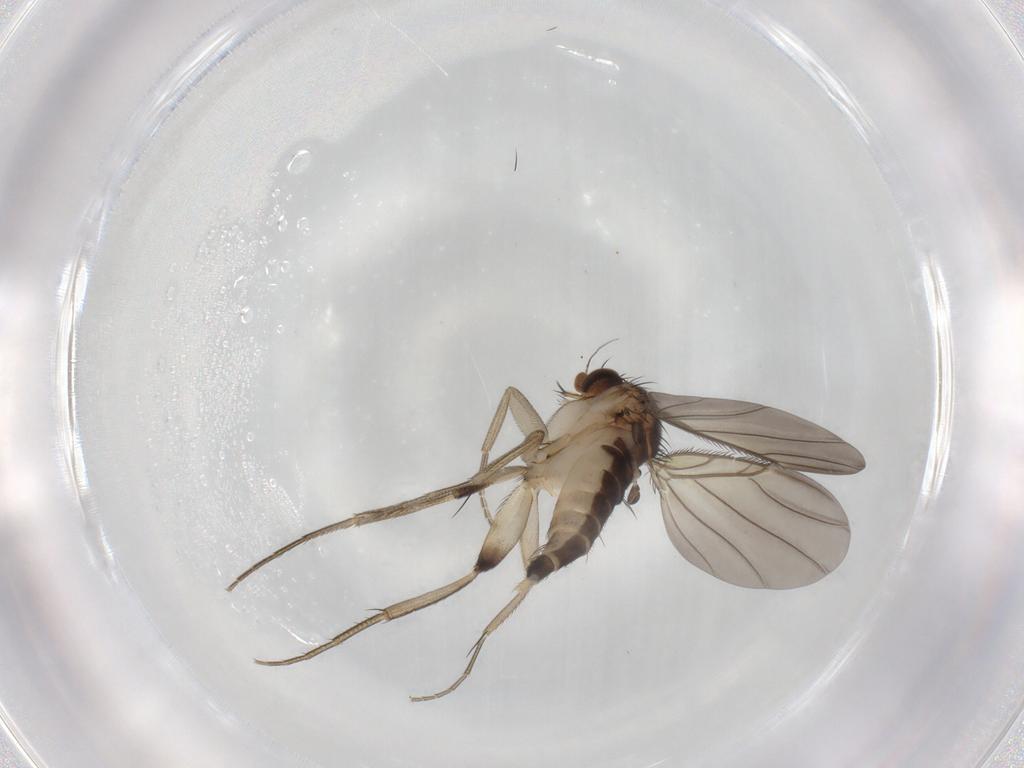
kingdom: Animalia
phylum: Arthropoda
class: Insecta
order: Diptera
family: Phoridae
